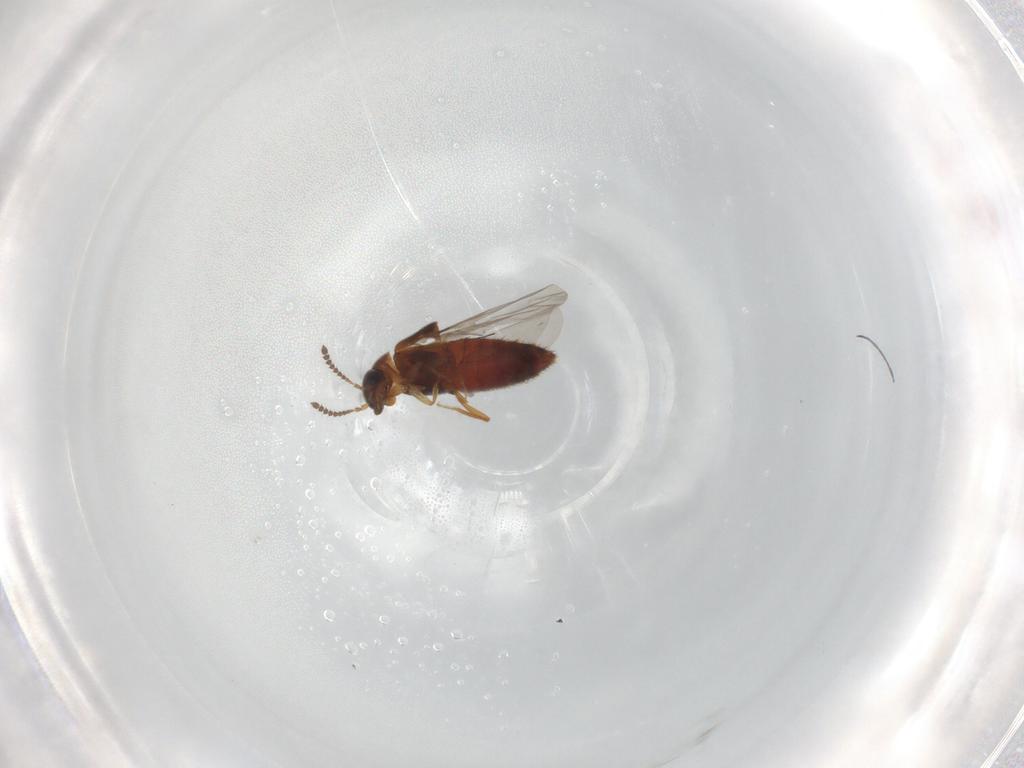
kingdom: Animalia
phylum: Arthropoda
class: Insecta
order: Coleoptera
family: Staphylinidae
